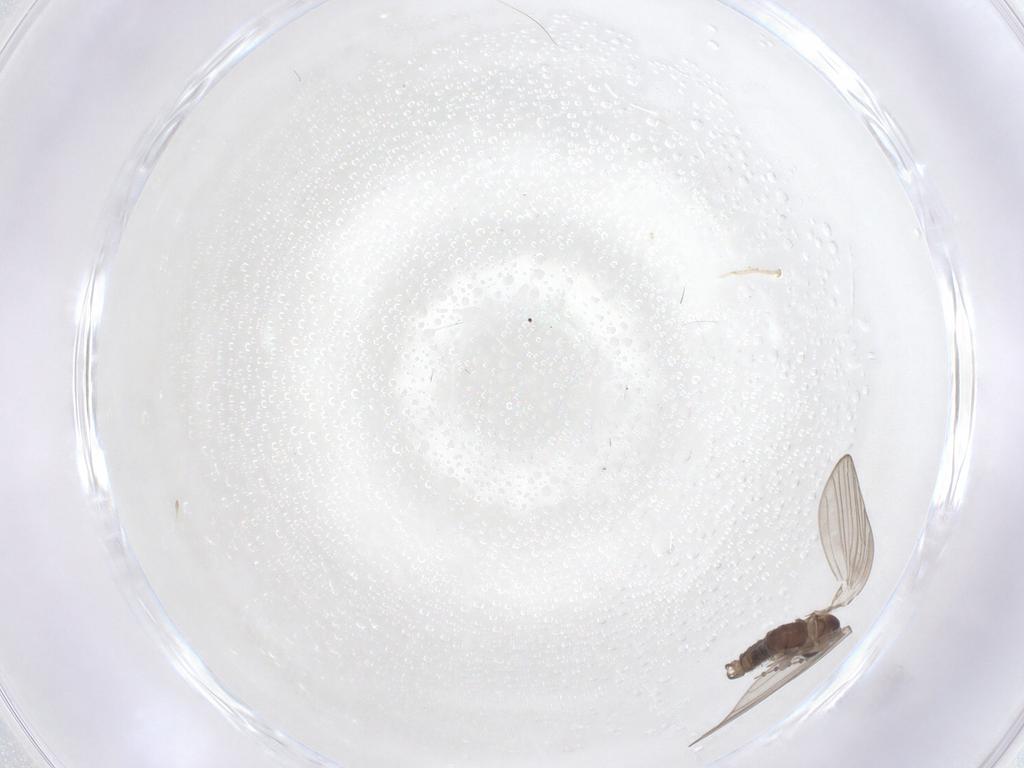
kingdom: Animalia
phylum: Arthropoda
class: Insecta
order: Diptera
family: Psychodidae
